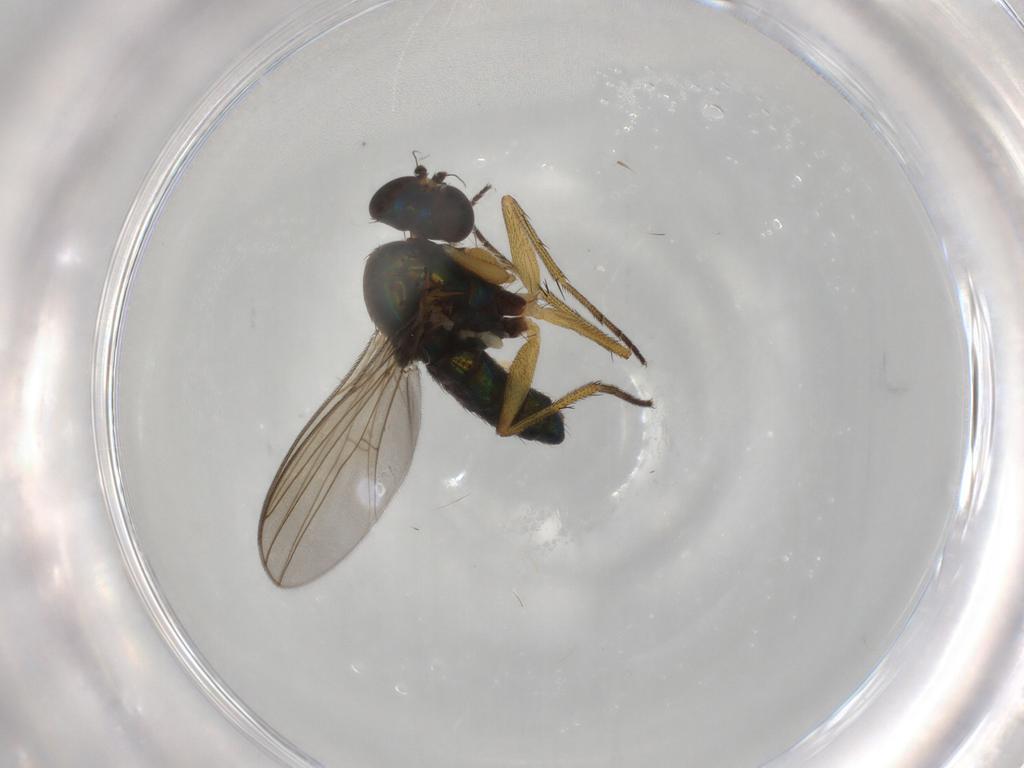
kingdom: Animalia
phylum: Arthropoda
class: Insecta
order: Diptera
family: Dolichopodidae
